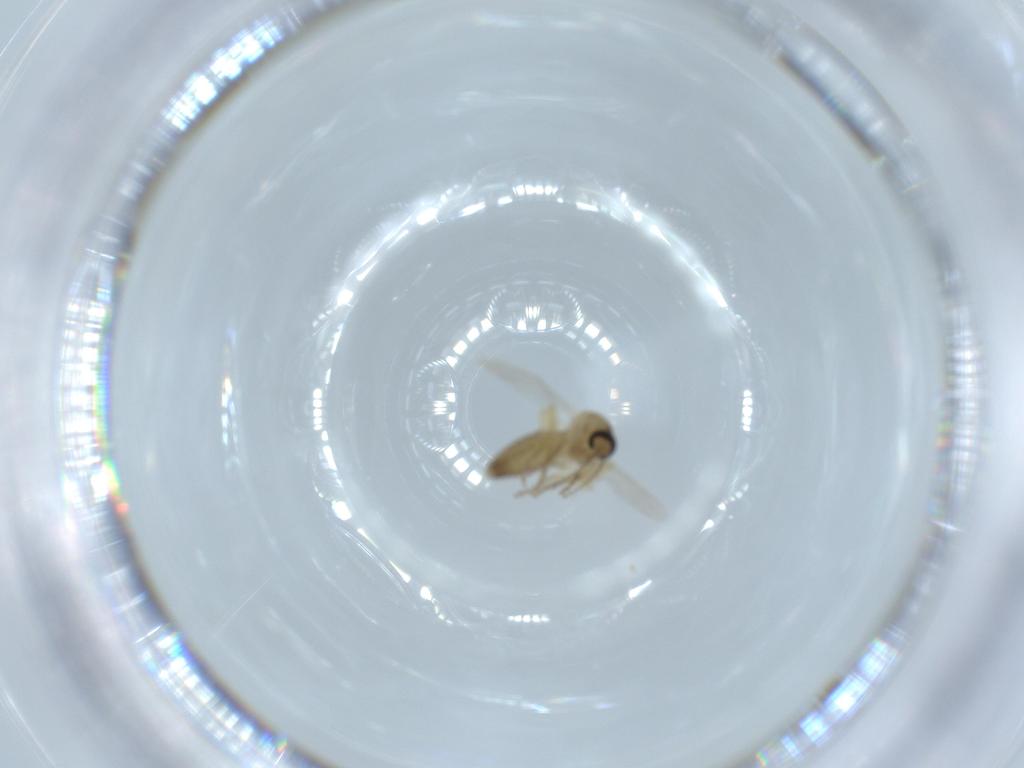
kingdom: Animalia
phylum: Arthropoda
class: Insecta
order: Diptera
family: Ceratopogonidae
